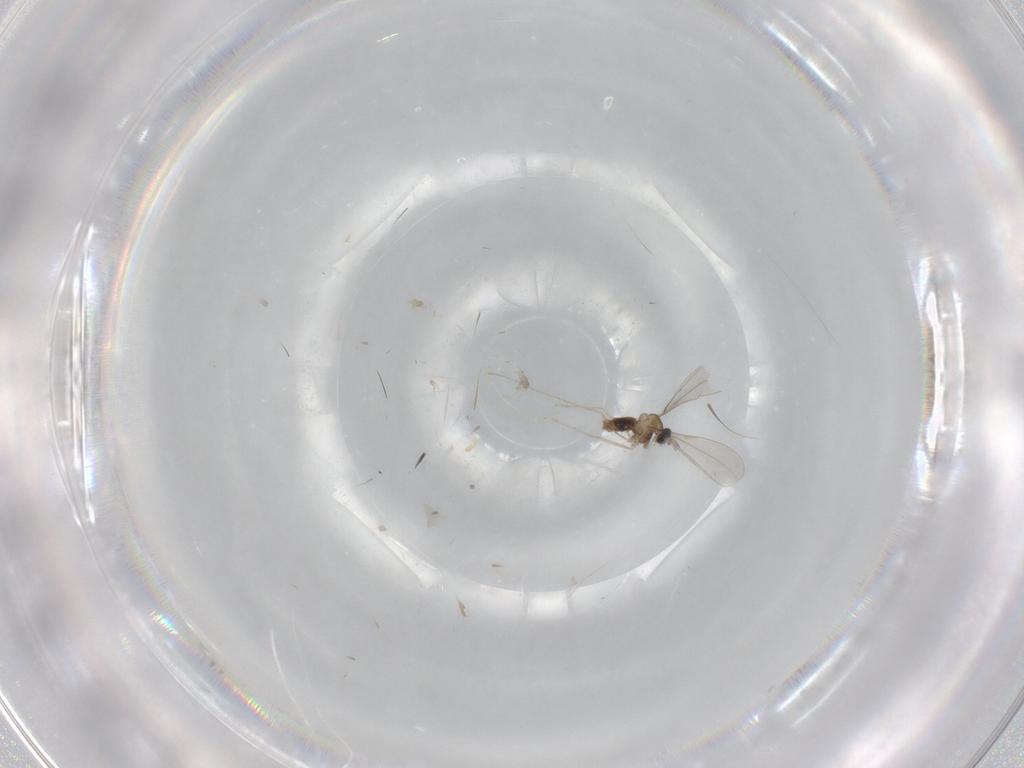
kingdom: Animalia
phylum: Arthropoda
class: Insecta
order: Diptera
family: Cecidomyiidae
